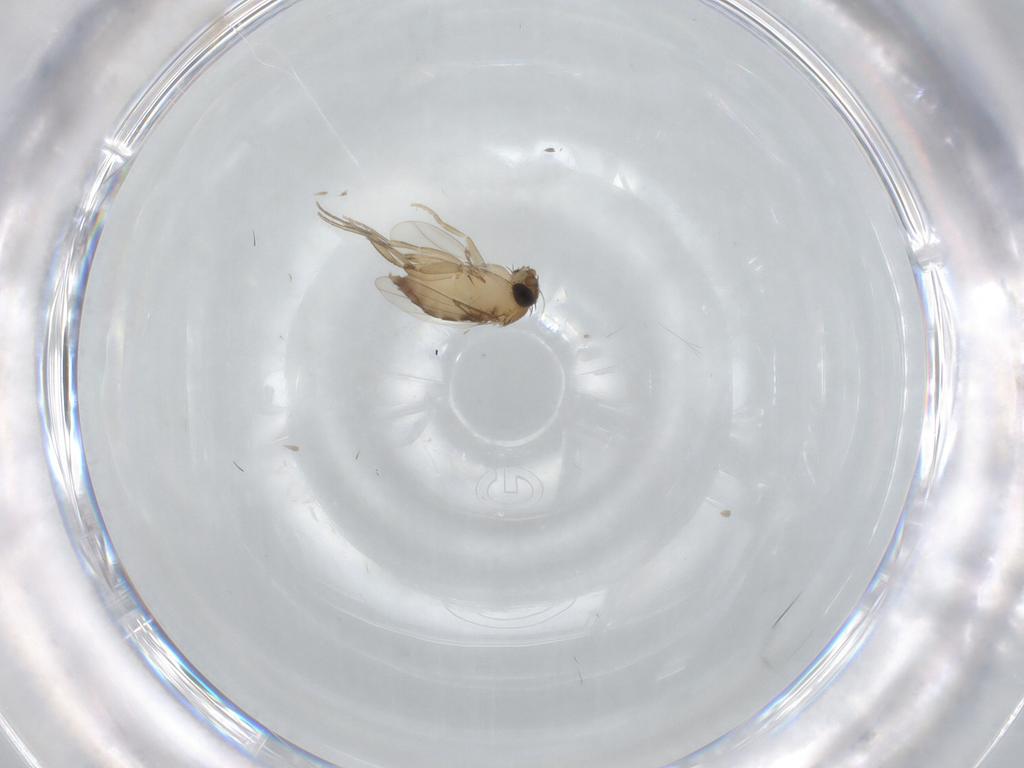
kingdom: Animalia
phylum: Arthropoda
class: Insecta
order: Diptera
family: Phoridae
